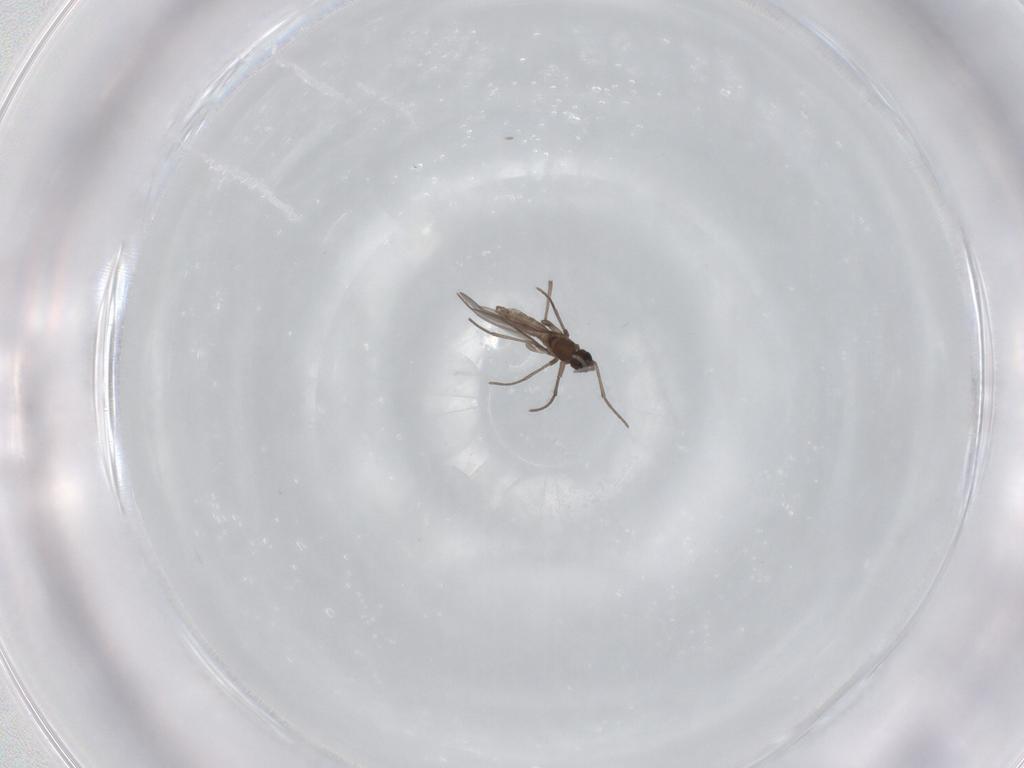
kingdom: Animalia
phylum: Arthropoda
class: Insecta
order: Diptera
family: Sciaridae
